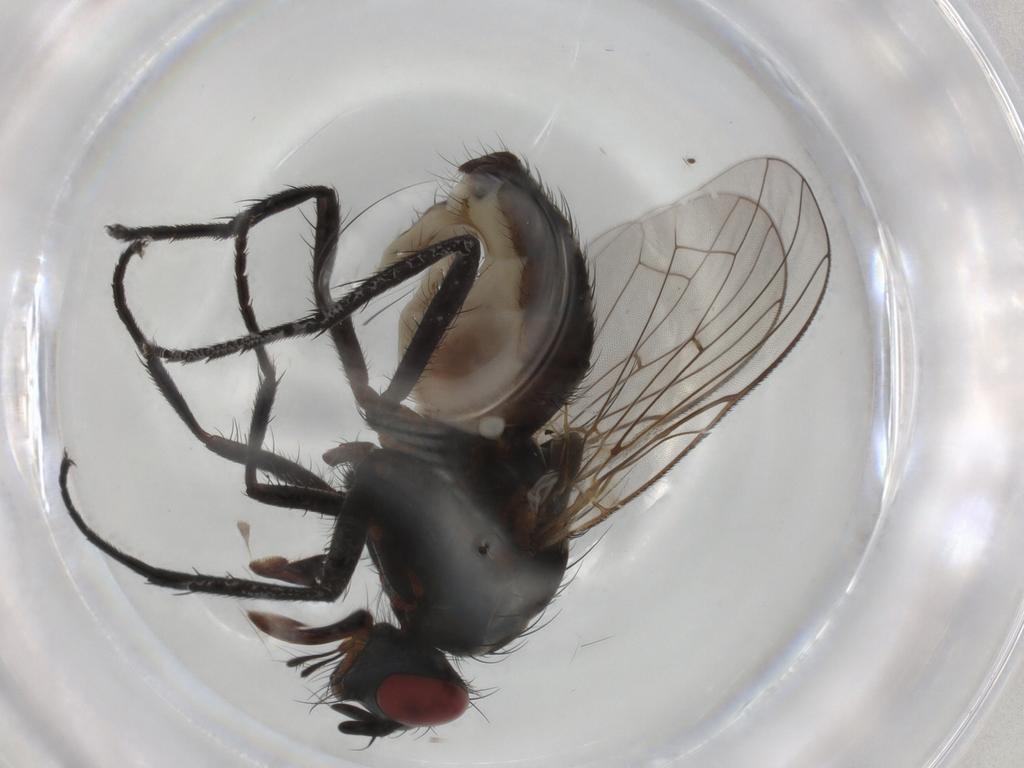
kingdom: Animalia
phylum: Arthropoda
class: Insecta
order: Diptera
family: Anthomyiidae
